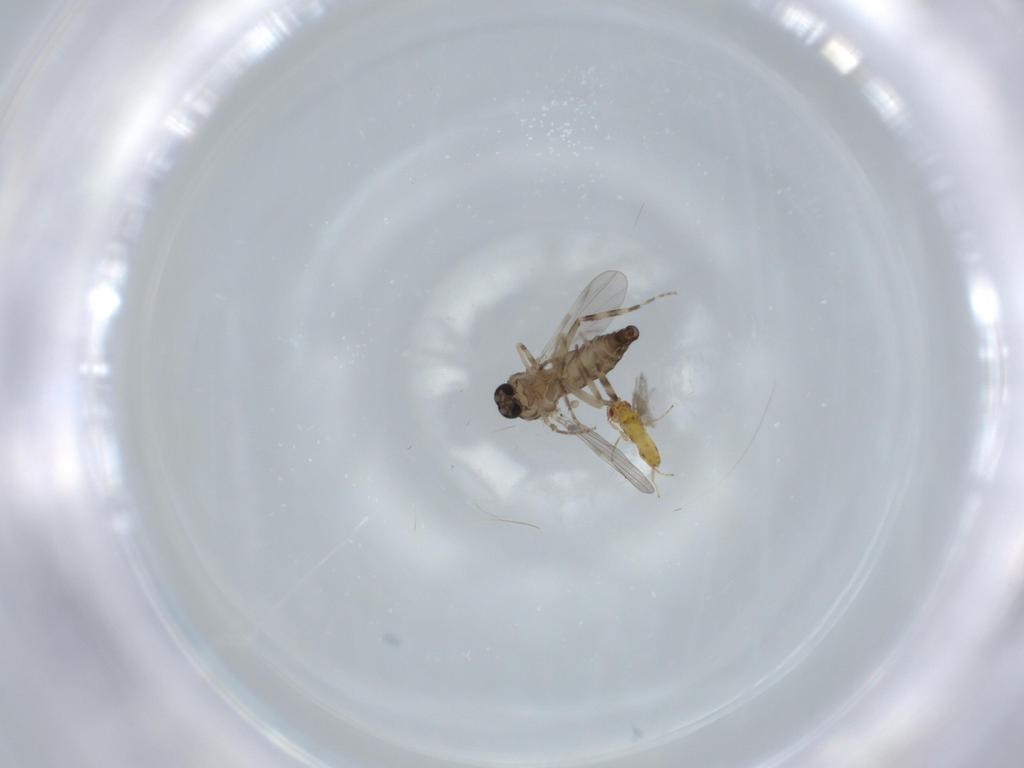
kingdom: Animalia
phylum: Arthropoda
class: Insecta
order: Diptera
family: Ceratopogonidae
